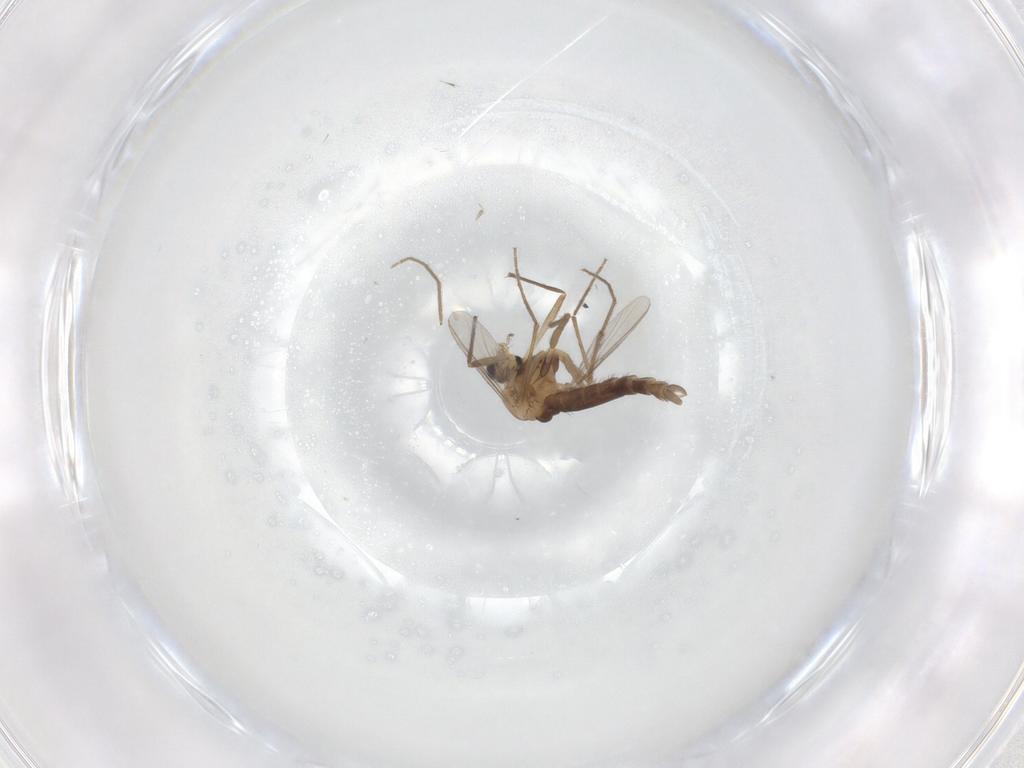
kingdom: Animalia
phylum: Arthropoda
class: Insecta
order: Diptera
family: Chironomidae
